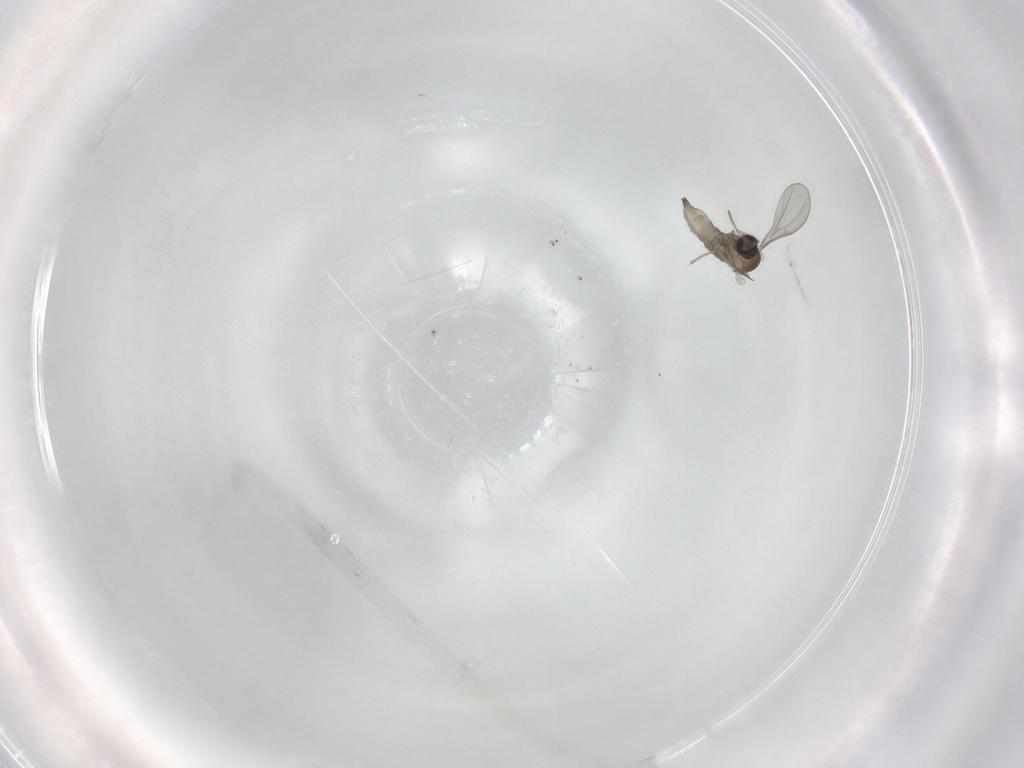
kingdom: Animalia
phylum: Arthropoda
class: Insecta
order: Diptera
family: Cecidomyiidae
